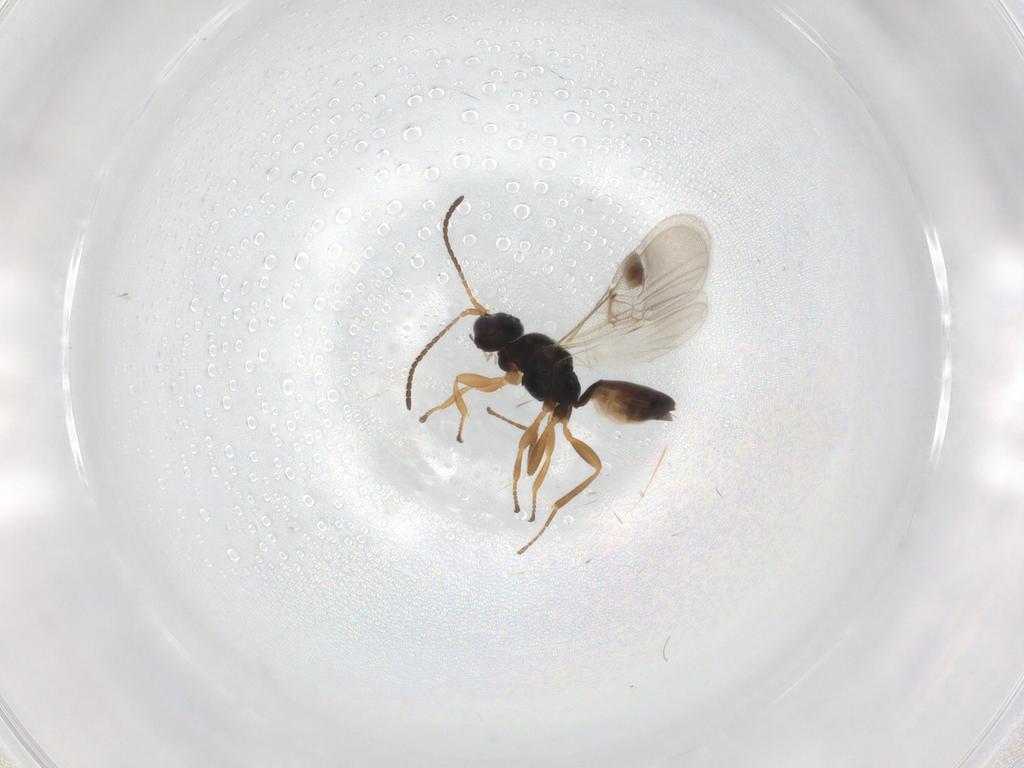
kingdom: Animalia
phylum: Arthropoda
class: Insecta
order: Hymenoptera
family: Braconidae
